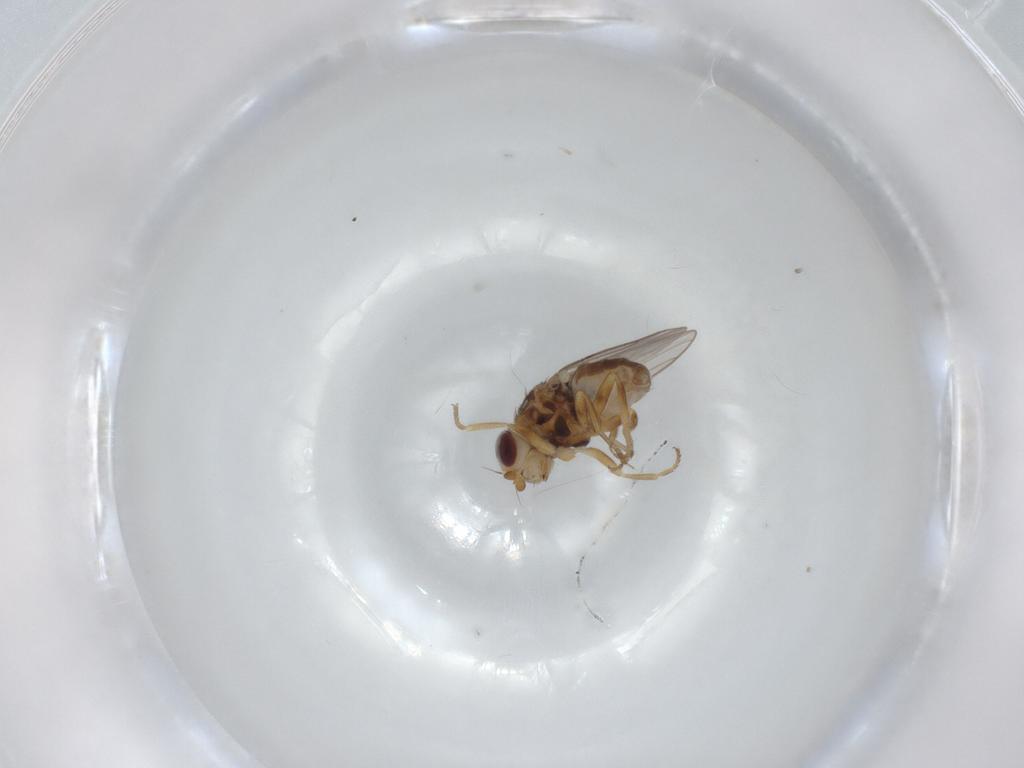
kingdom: Animalia
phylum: Arthropoda
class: Insecta
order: Diptera
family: Chloropidae
